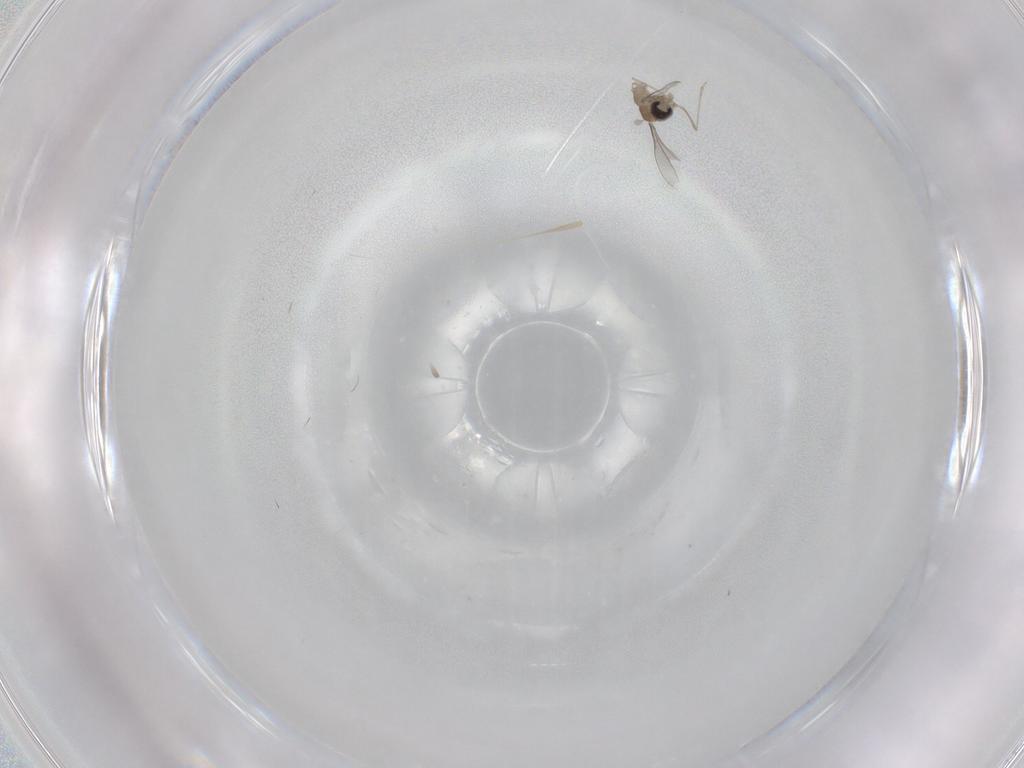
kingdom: Animalia
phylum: Arthropoda
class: Insecta
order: Diptera
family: Cecidomyiidae
